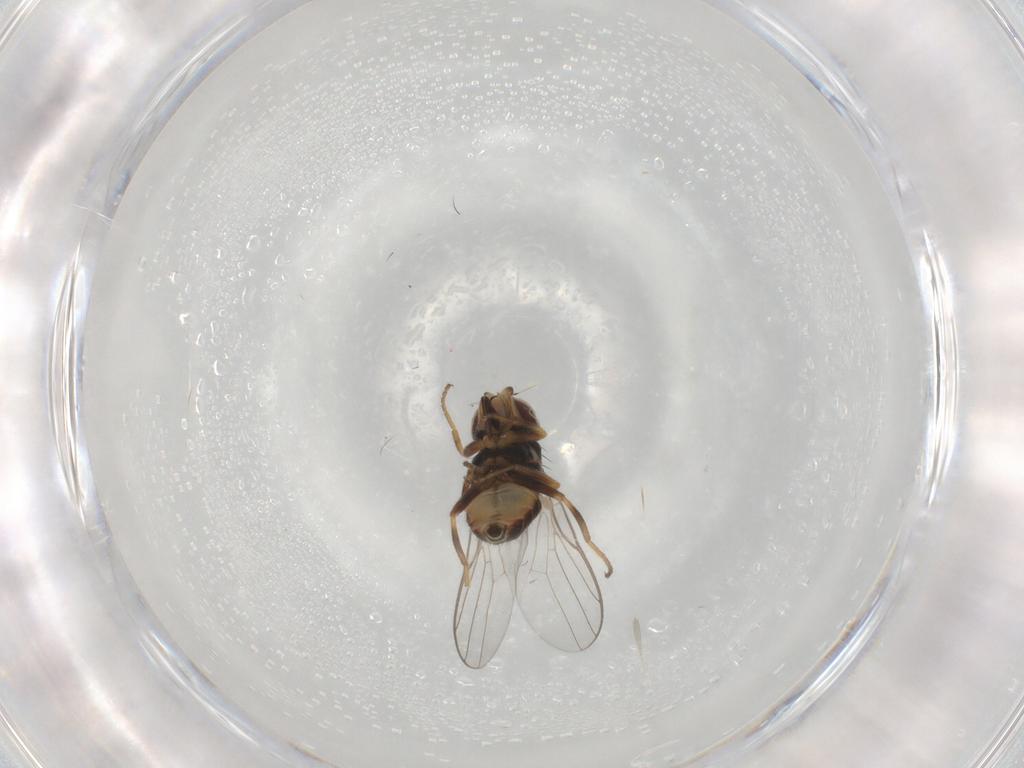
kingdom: Animalia
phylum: Arthropoda
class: Insecta
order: Diptera
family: Chloropidae
